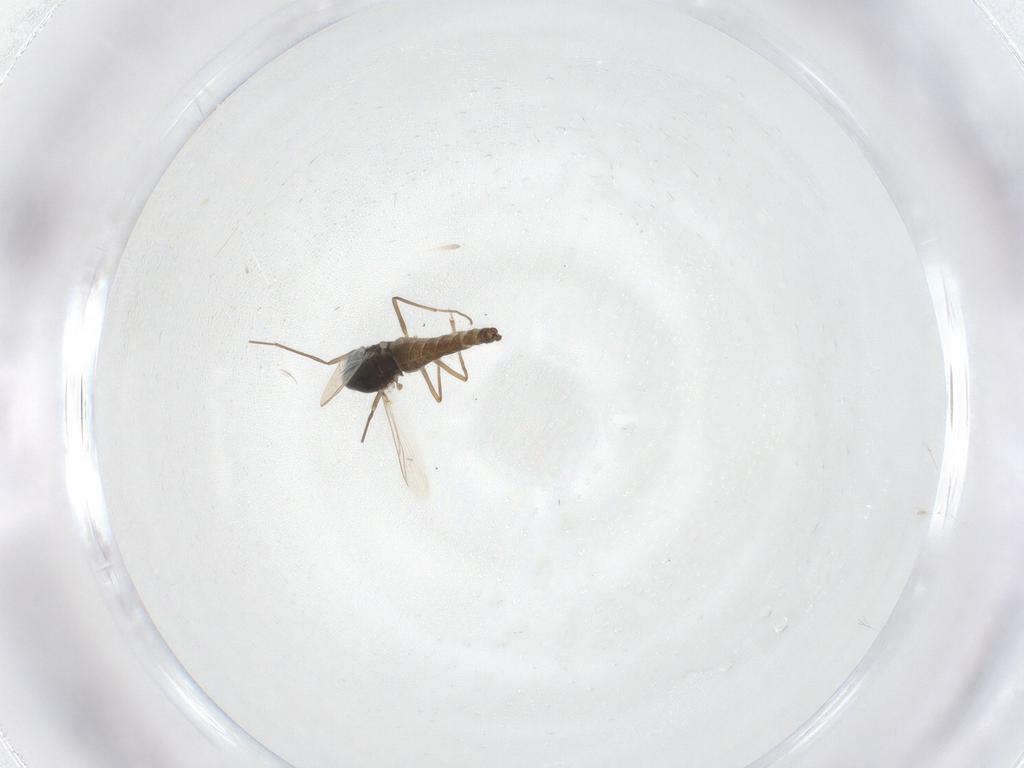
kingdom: Animalia
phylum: Arthropoda
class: Insecta
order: Diptera
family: Chironomidae
